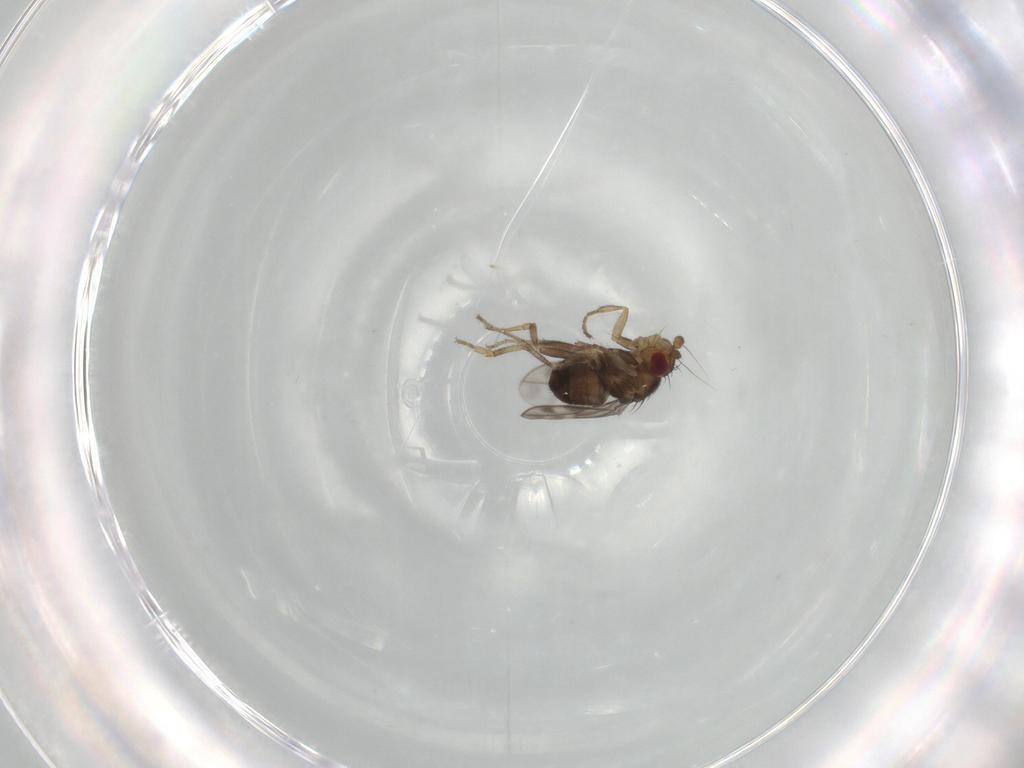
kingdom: Animalia
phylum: Arthropoda
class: Insecta
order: Diptera
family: Sphaeroceridae
